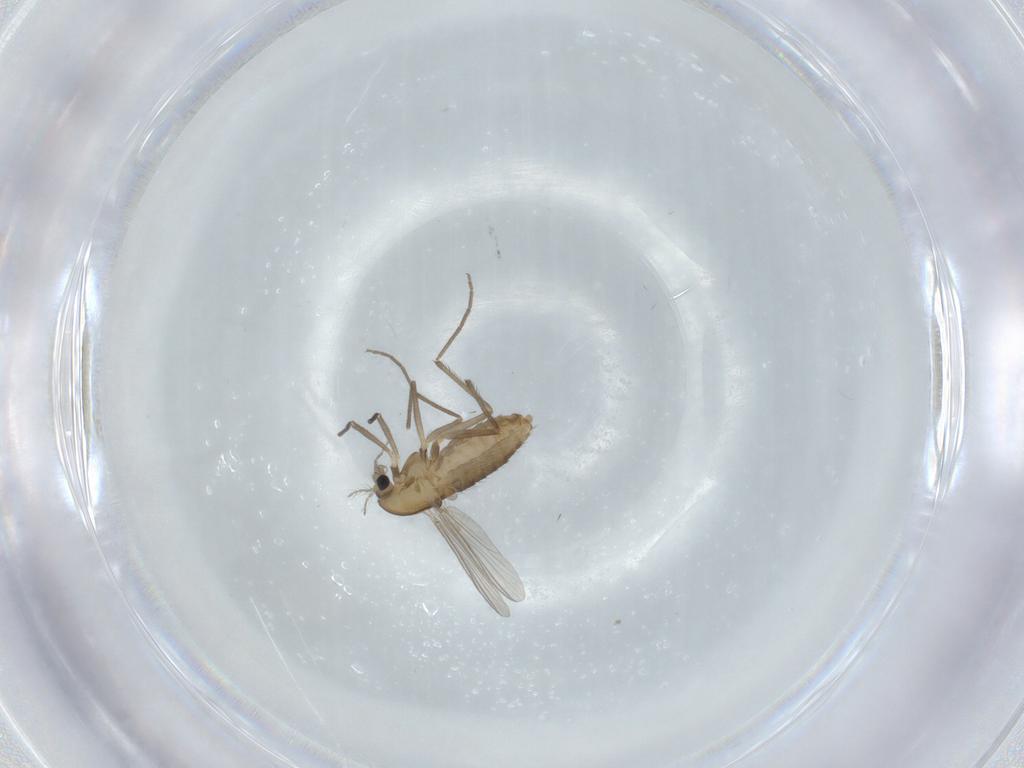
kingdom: Animalia
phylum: Arthropoda
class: Insecta
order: Diptera
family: Chironomidae
